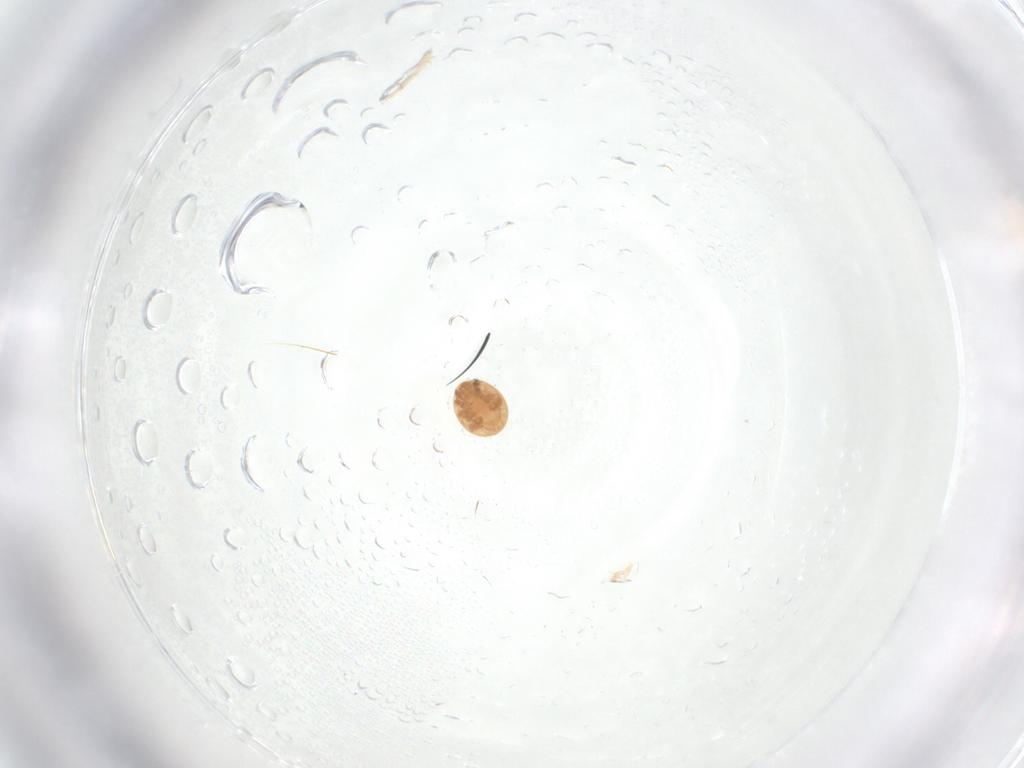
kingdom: Animalia
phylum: Arthropoda
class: Arachnida
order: Mesostigmata
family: Trematuridae
